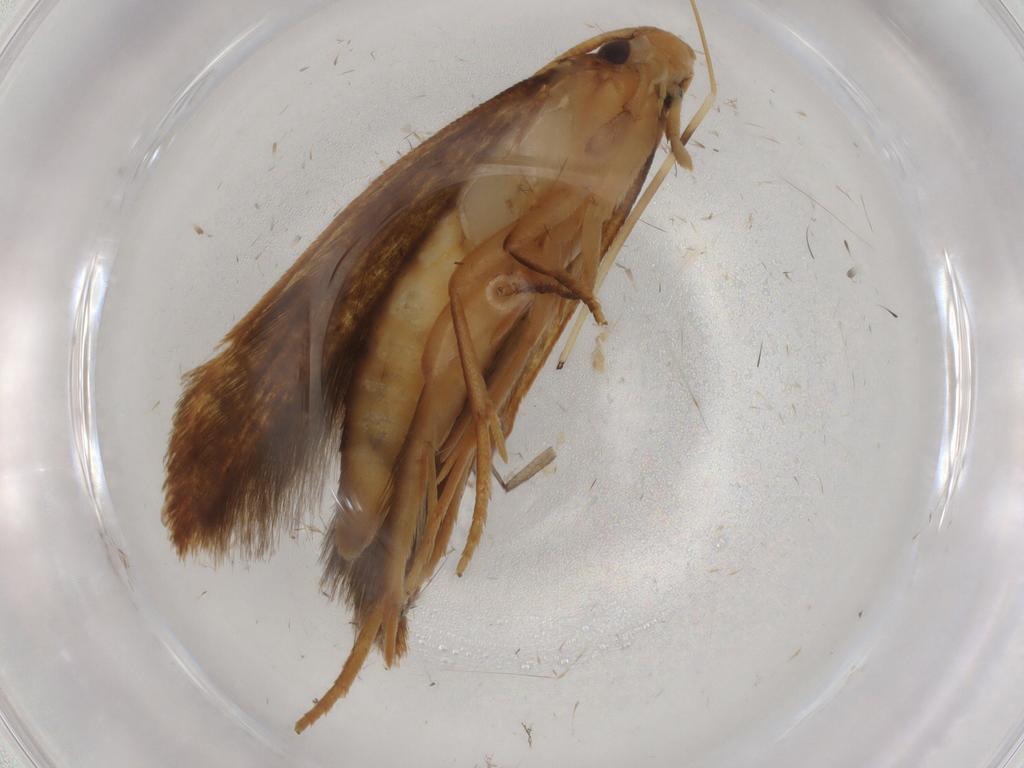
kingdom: Animalia
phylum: Arthropoda
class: Insecta
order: Lepidoptera
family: Tineidae
